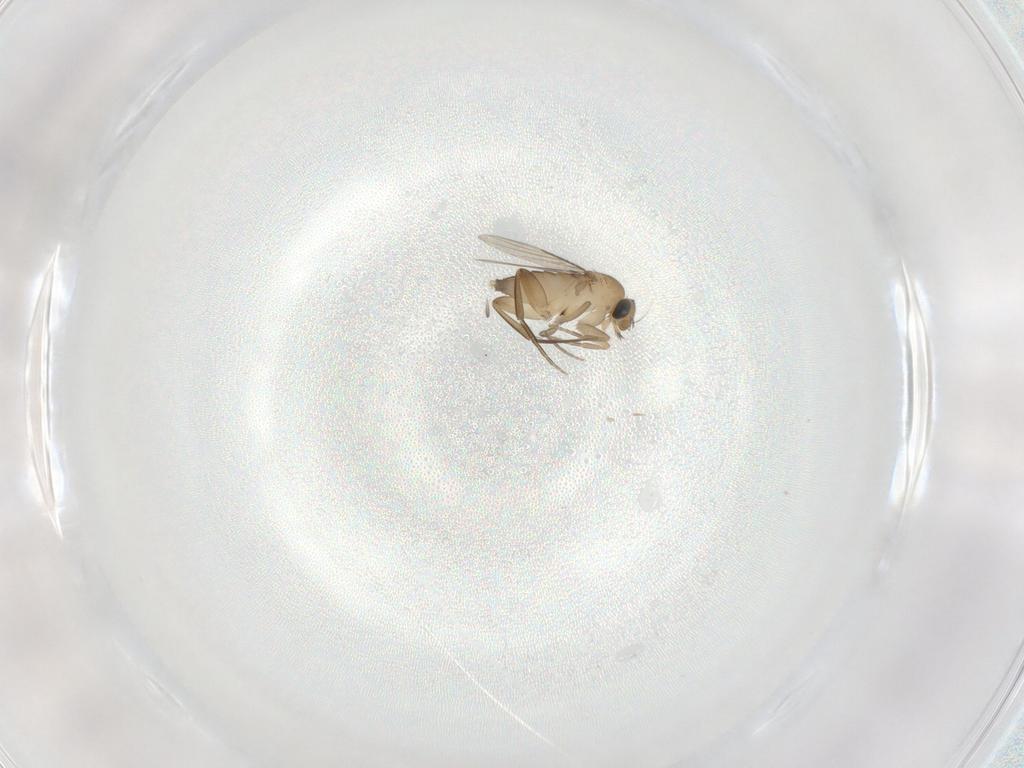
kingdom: Animalia
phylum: Arthropoda
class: Insecta
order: Diptera
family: Phoridae
